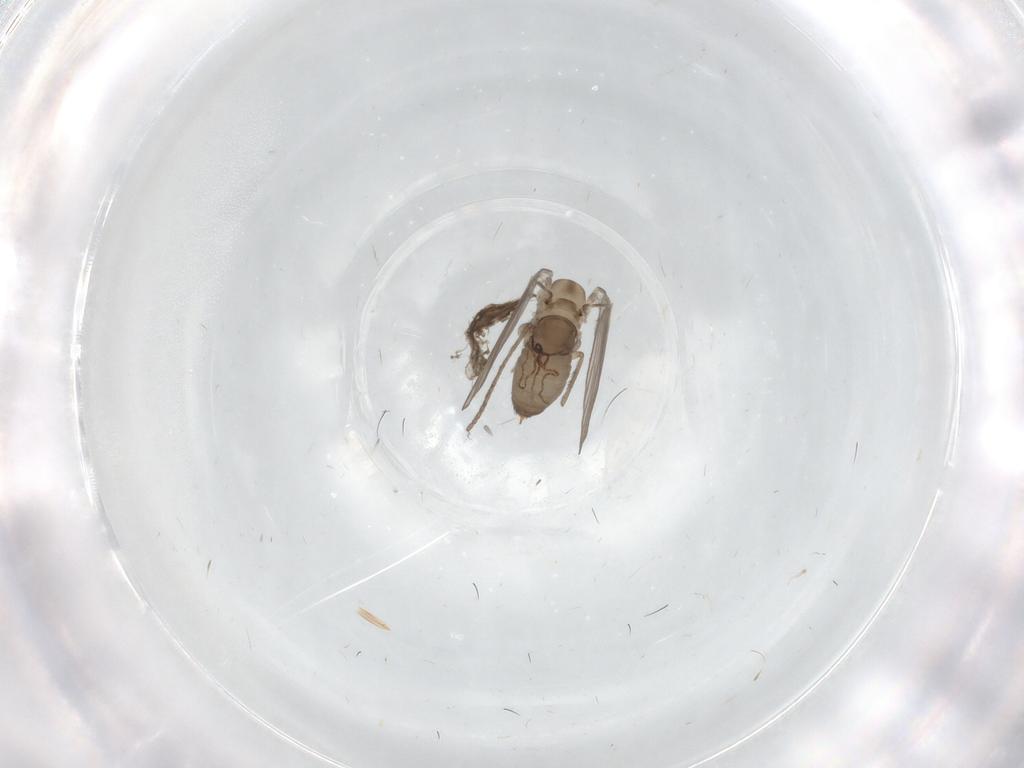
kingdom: Animalia
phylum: Arthropoda
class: Insecta
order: Diptera
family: Psychodidae
